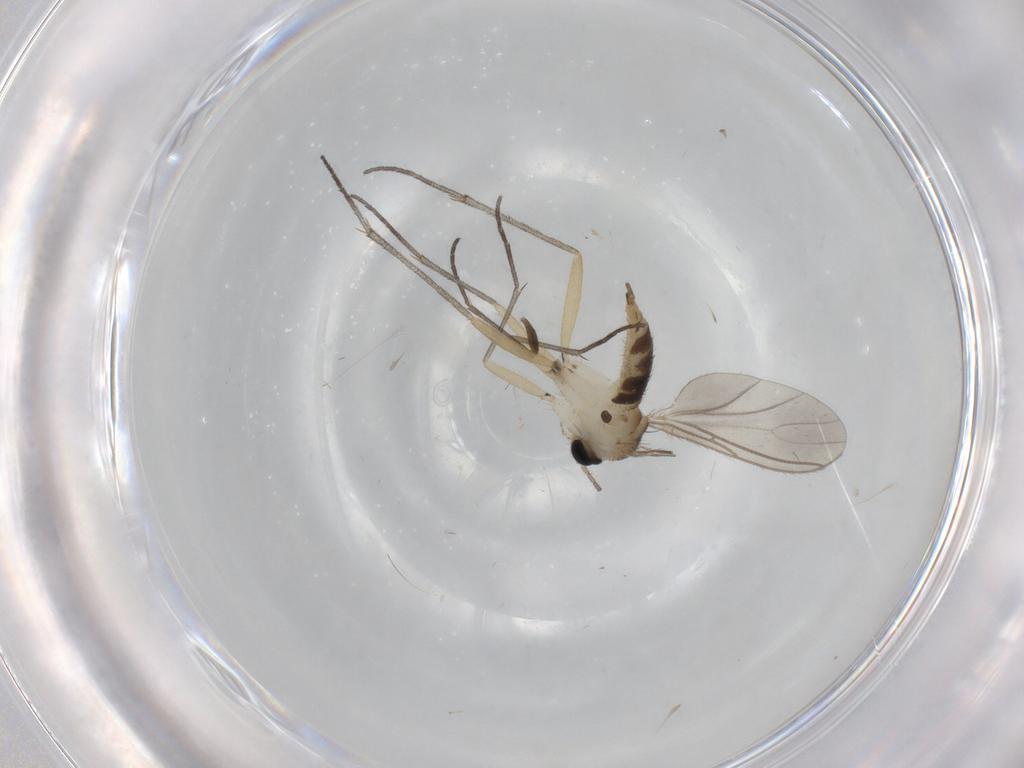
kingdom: Animalia
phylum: Arthropoda
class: Insecta
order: Diptera
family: Sciaridae
